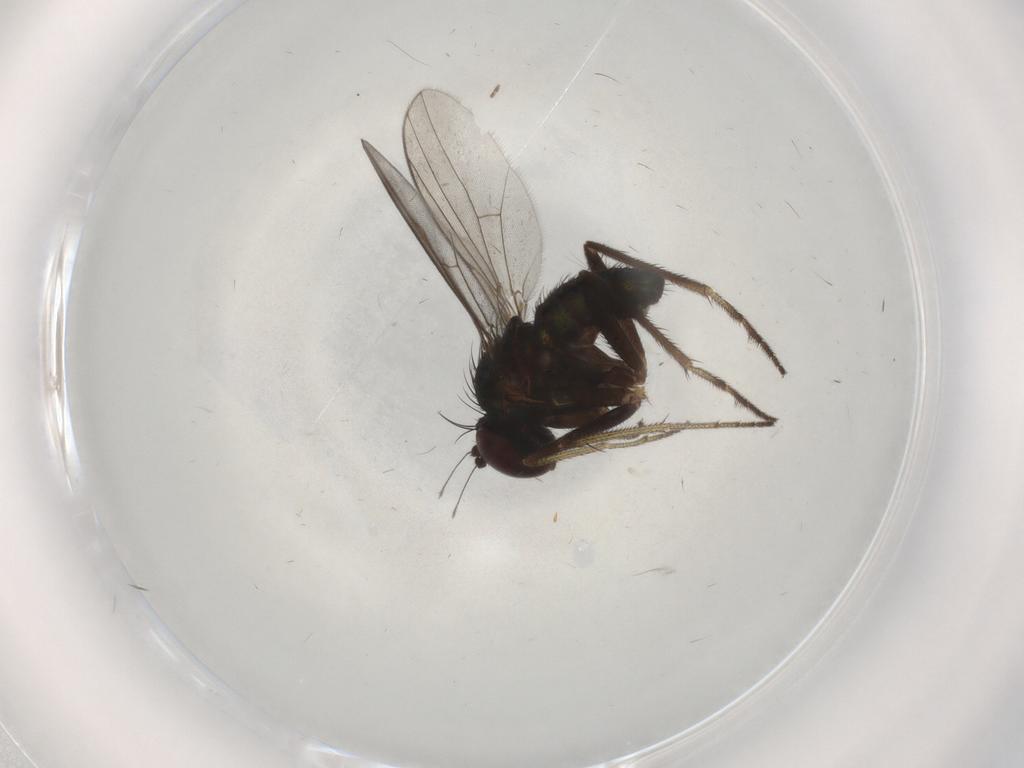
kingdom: Animalia
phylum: Arthropoda
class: Insecta
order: Diptera
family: Dolichopodidae
